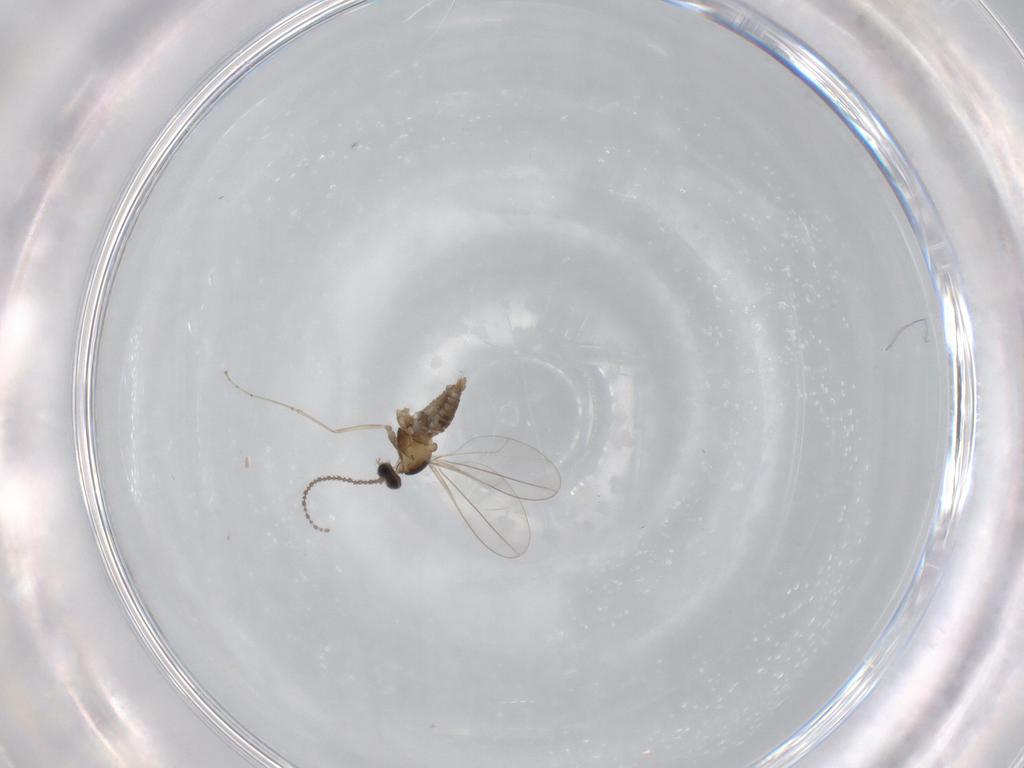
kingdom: Animalia
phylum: Arthropoda
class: Insecta
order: Diptera
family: Cecidomyiidae
